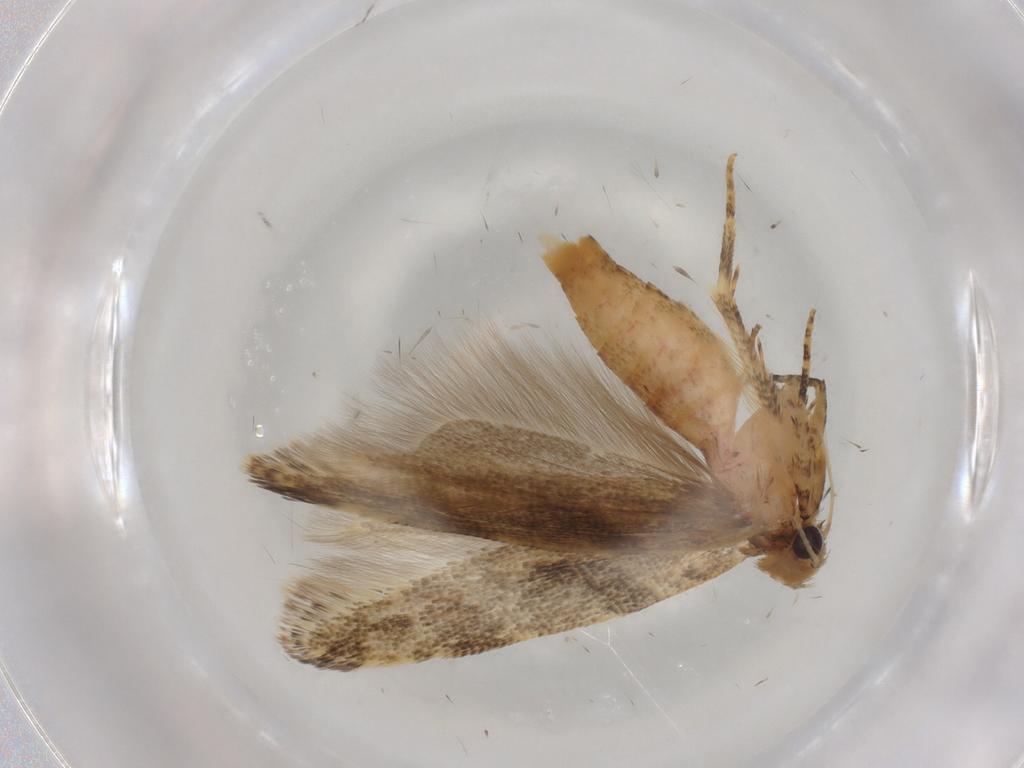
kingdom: Animalia
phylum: Arthropoda
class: Insecta
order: Lepidoptera
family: Gelechiidae
